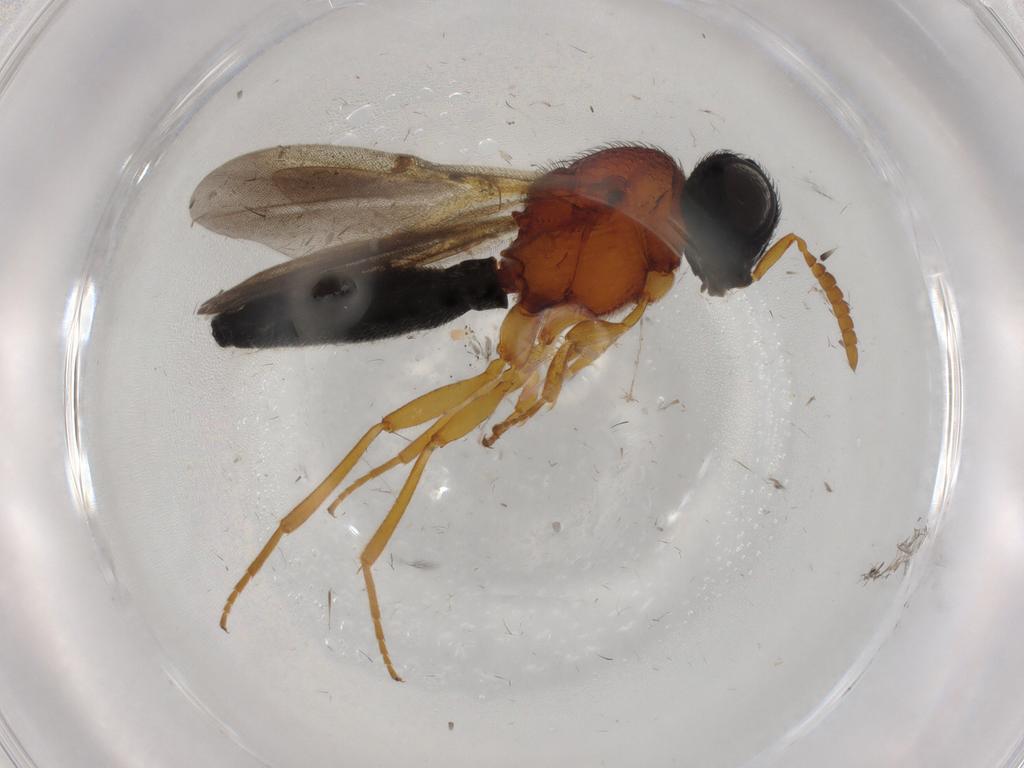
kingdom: Animalia
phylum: Arthropoda
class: Insecta
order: Hymenoptera
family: Scelionidae
